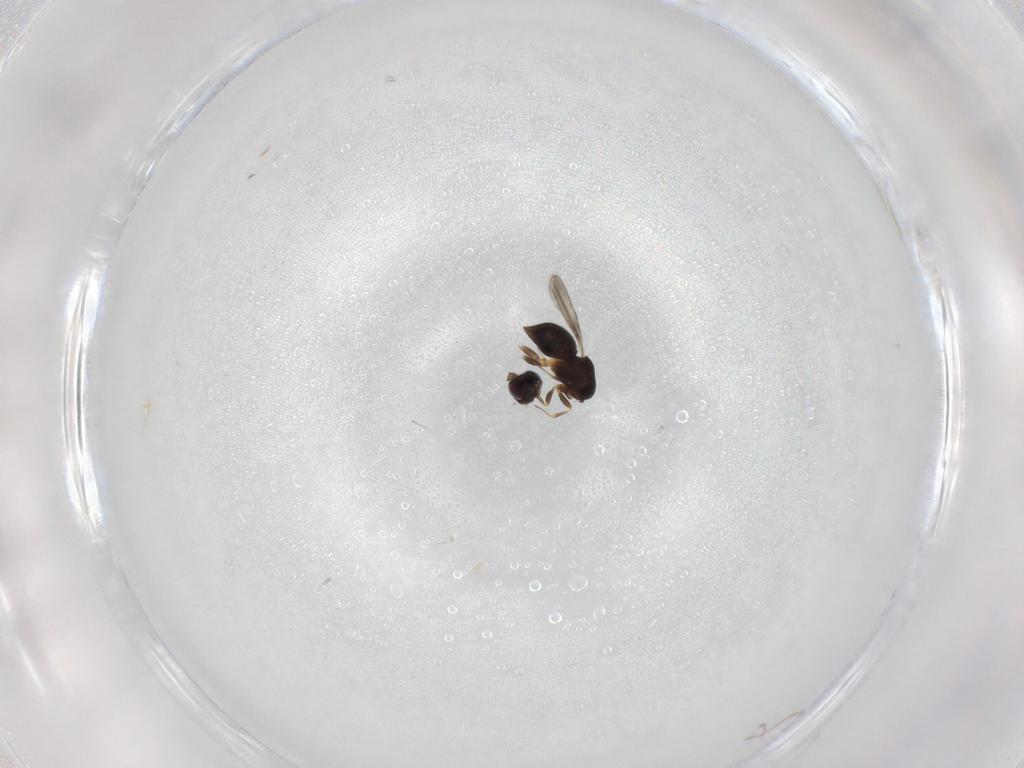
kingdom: Animalia
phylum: Arthropoda
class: Insecta
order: Hymenoptera
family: Ceraphronidae
